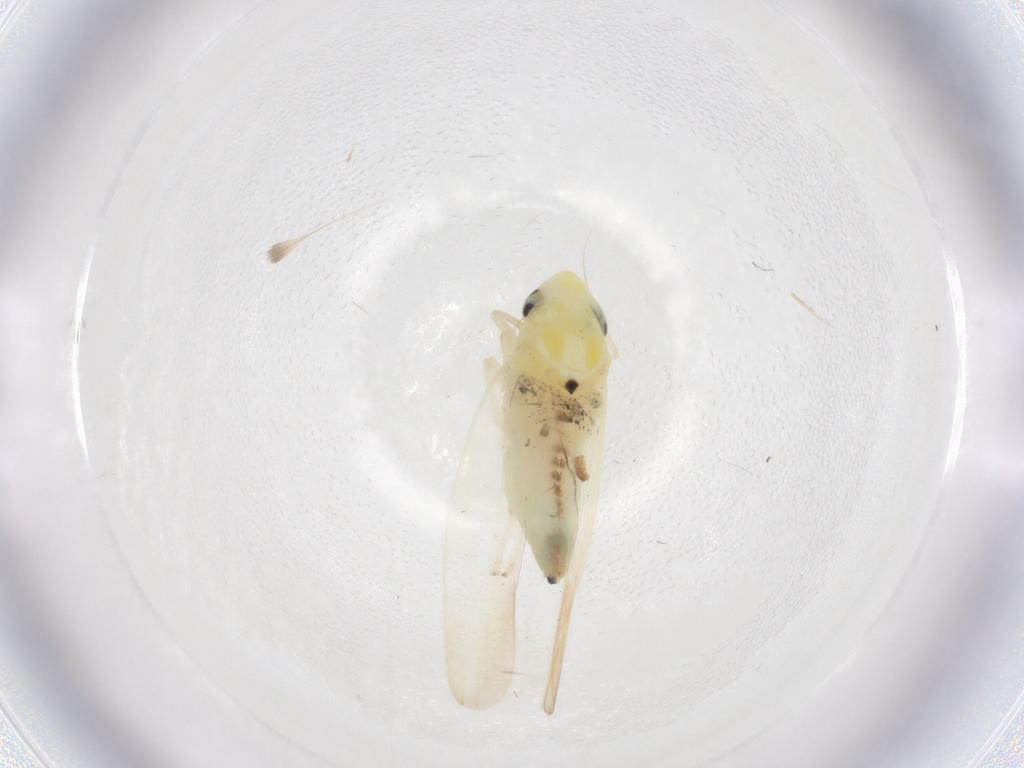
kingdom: Animalia
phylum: Arthropoda
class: Insecta
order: Hemiptera
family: Cicadellidae
